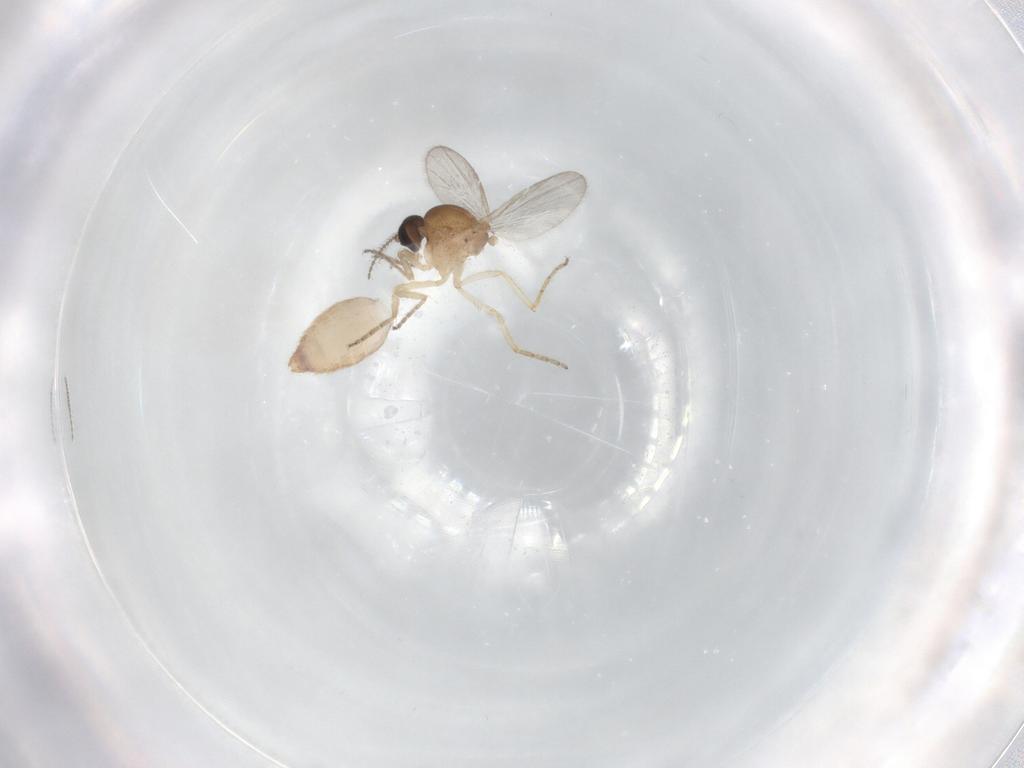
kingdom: Animalia
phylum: Arthropoda
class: Insecta
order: Diptera
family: Ceratopogonidae
